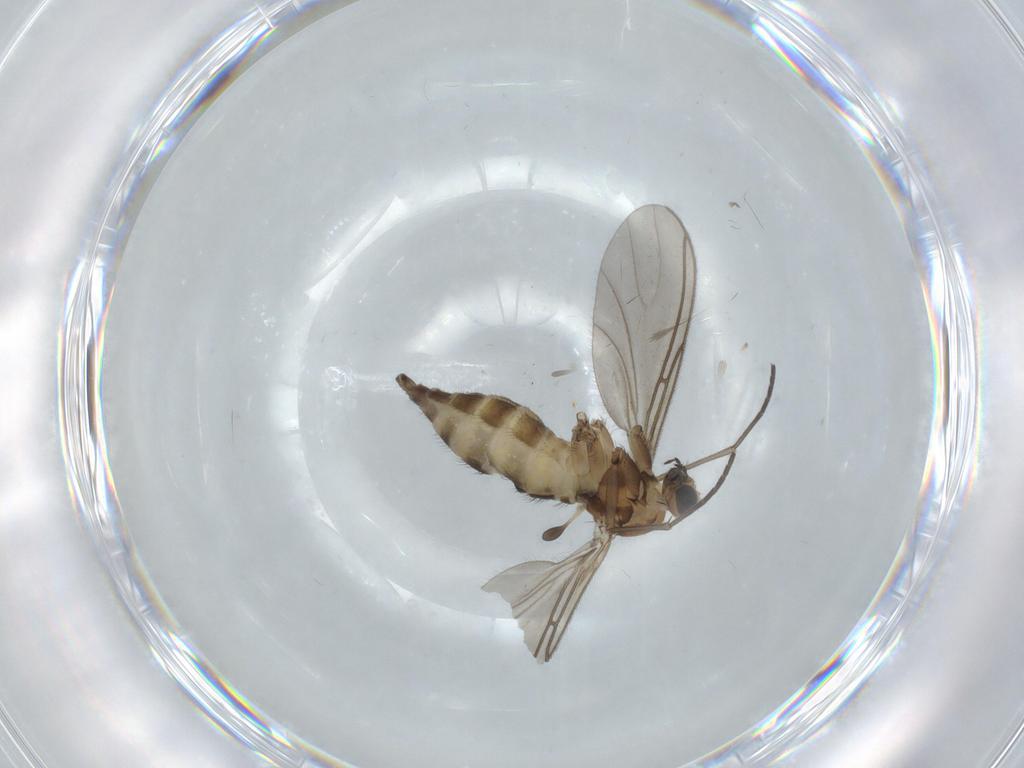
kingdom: Animalia
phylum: Arthropoda
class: Insecta
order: Diptera
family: Sciaridae
